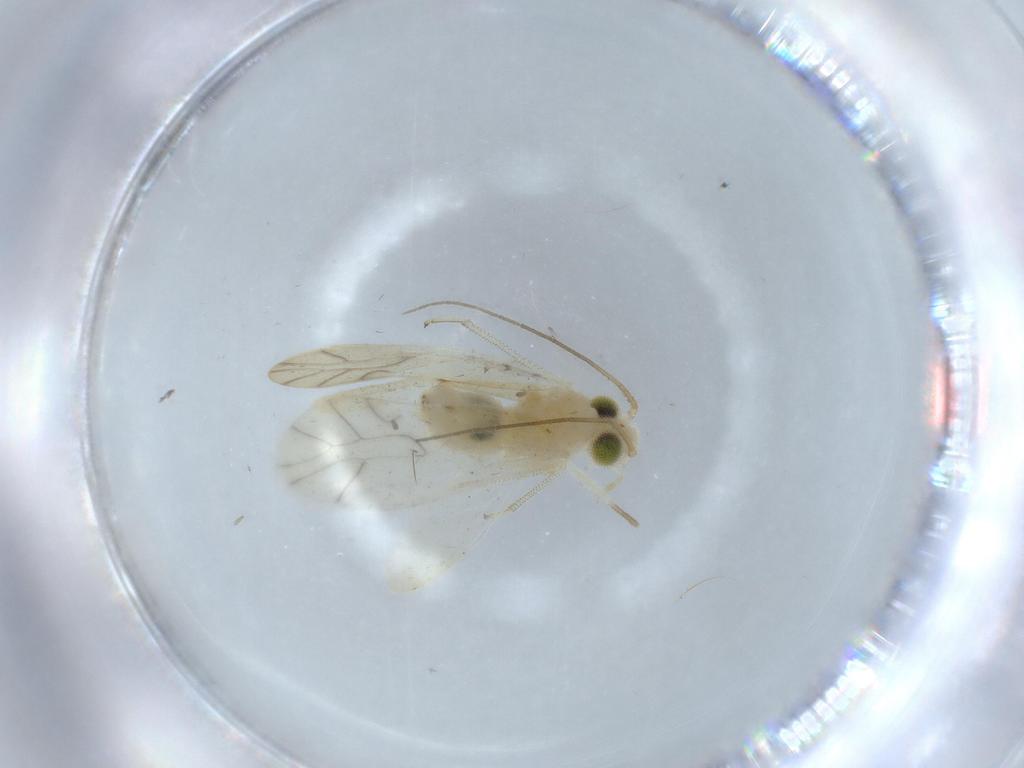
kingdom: Animalia
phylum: Arthropoda
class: Insecta
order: Psocodea
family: Caeciliusidae
